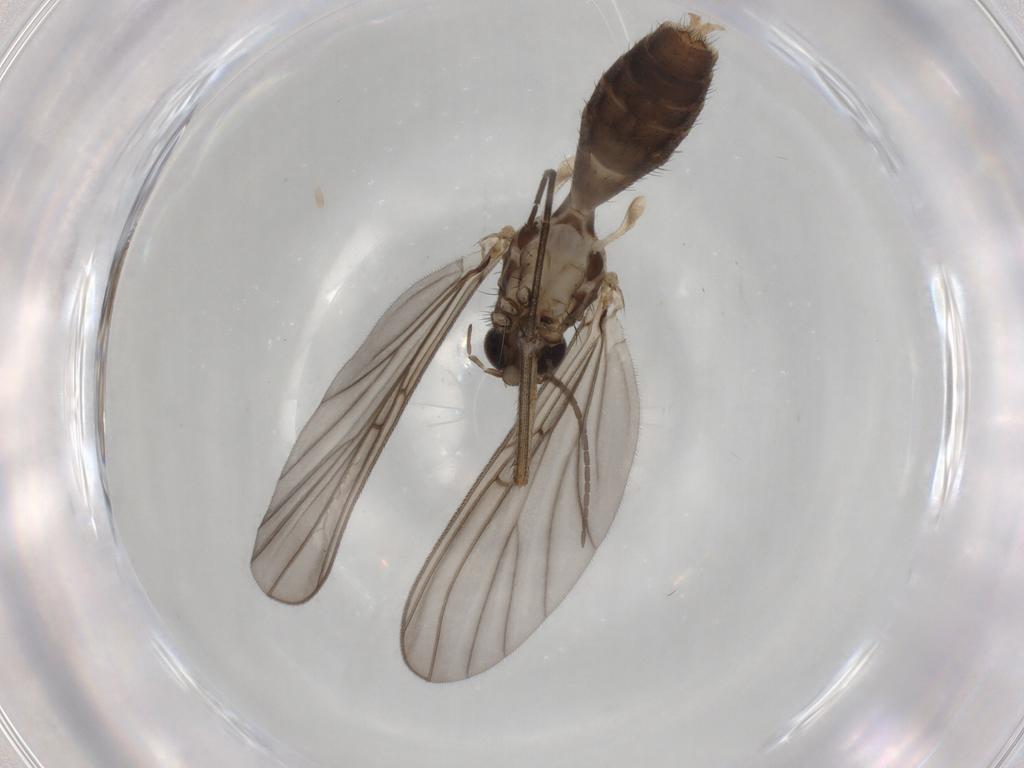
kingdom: Animalia
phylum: Arthropoda
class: Insecta
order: Diptera
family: Mycetophilidae
